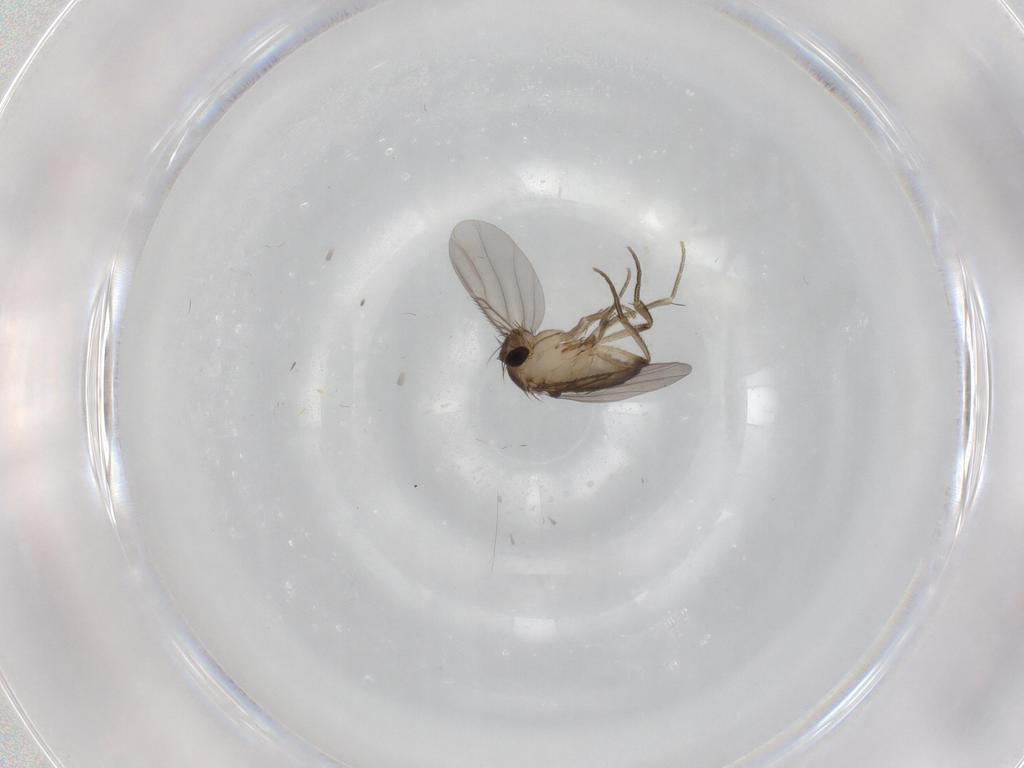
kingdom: Animalia
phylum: Arthropoda
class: Insecta
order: Diptera
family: Phoridae
